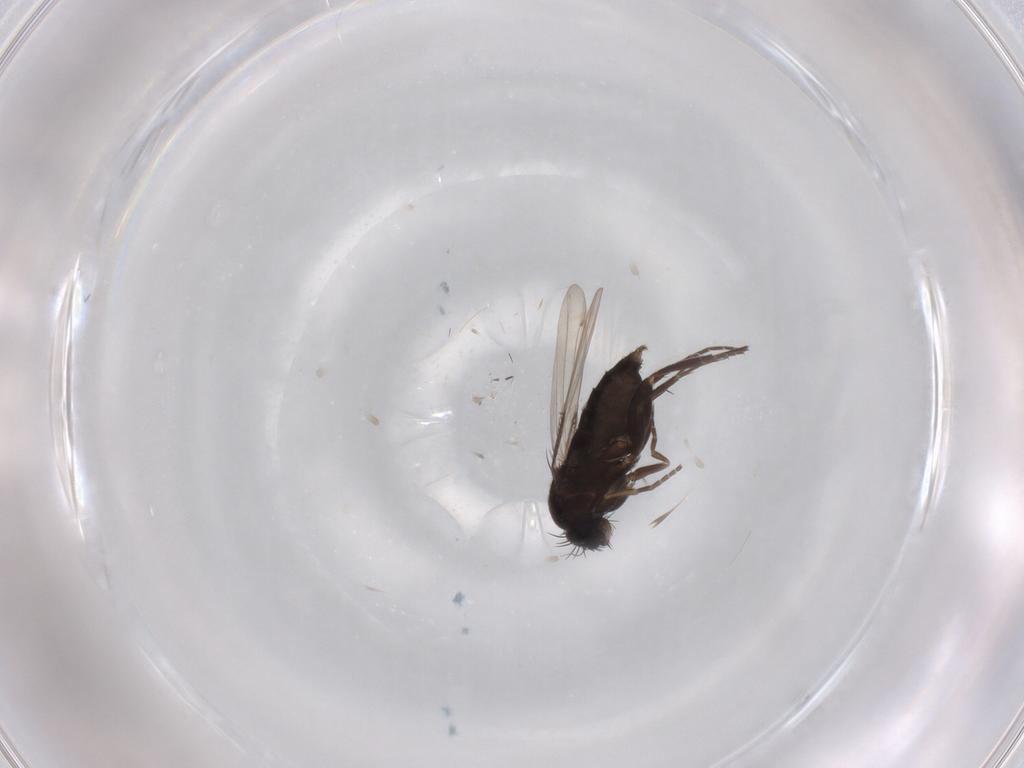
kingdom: Animalia
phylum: Arthropoda
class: Insecta
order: Diptera
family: Phoridae
